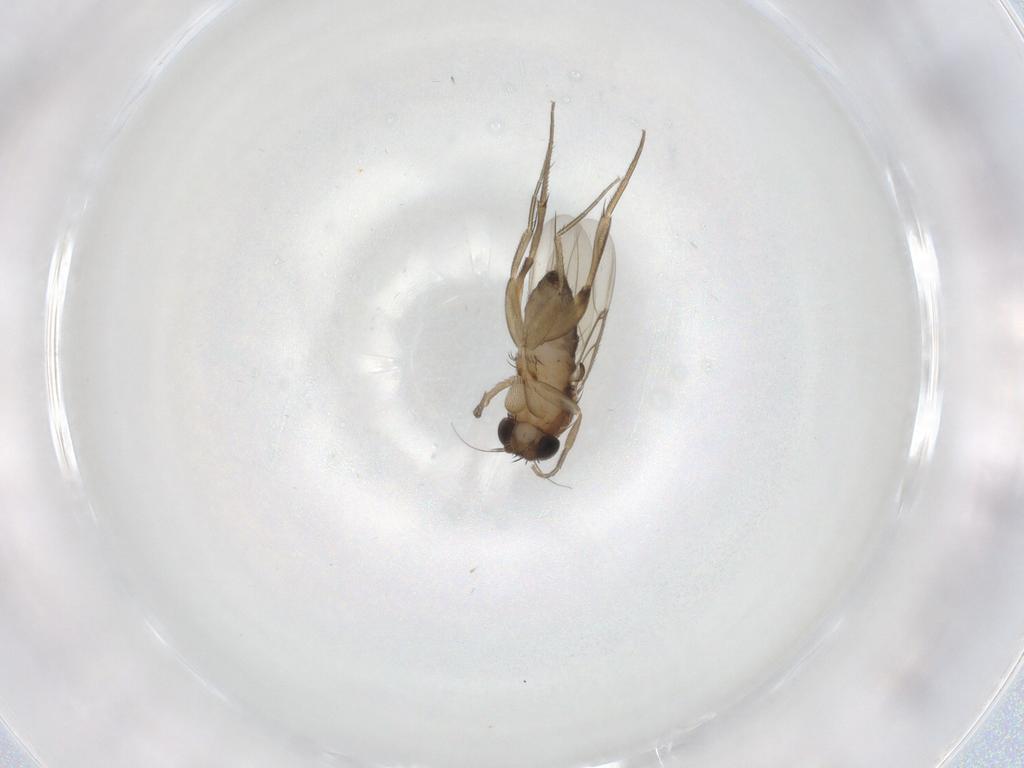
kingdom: Animalia
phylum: Arthropoda
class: Insecta
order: Diptera
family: Phoridae
